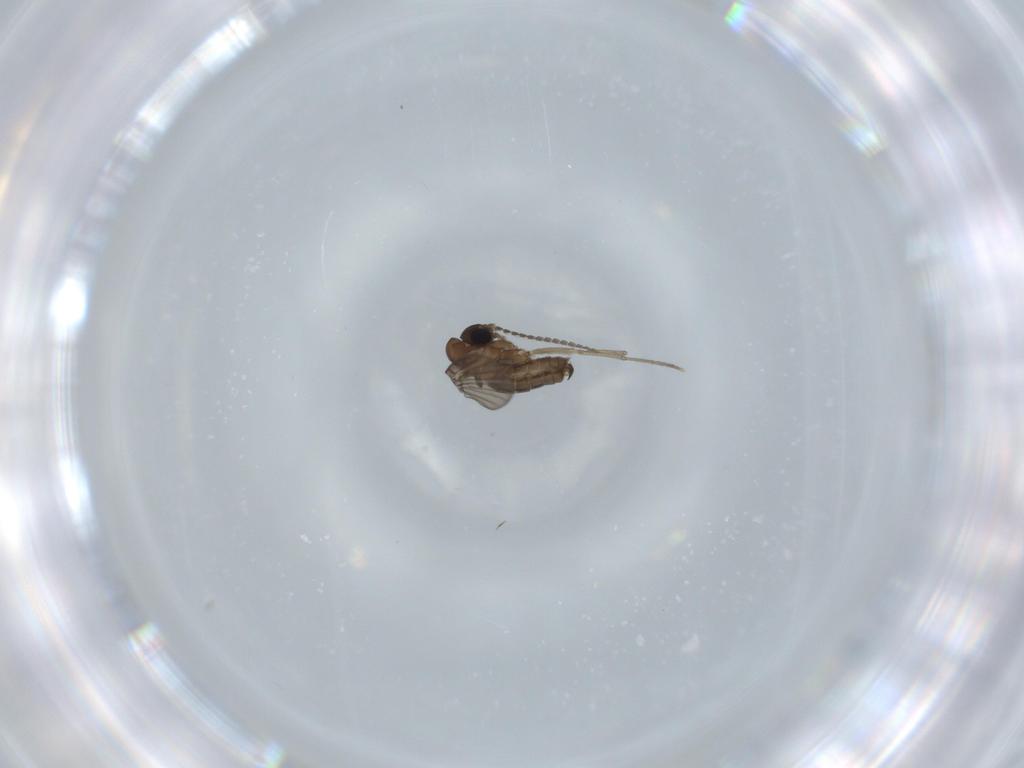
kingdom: Animalia
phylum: Arthropoda
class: Insecta
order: Diptera
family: Psychodidae
